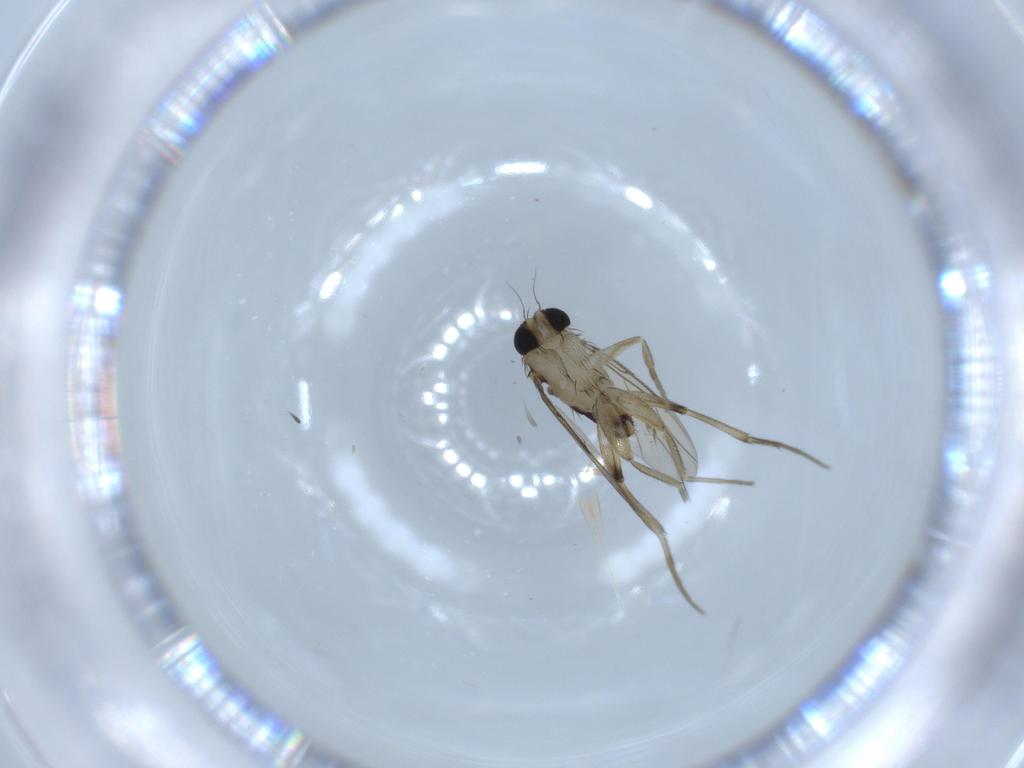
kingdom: Animalia
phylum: Arthropoda
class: Insecta
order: Diptera
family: Phoridae
